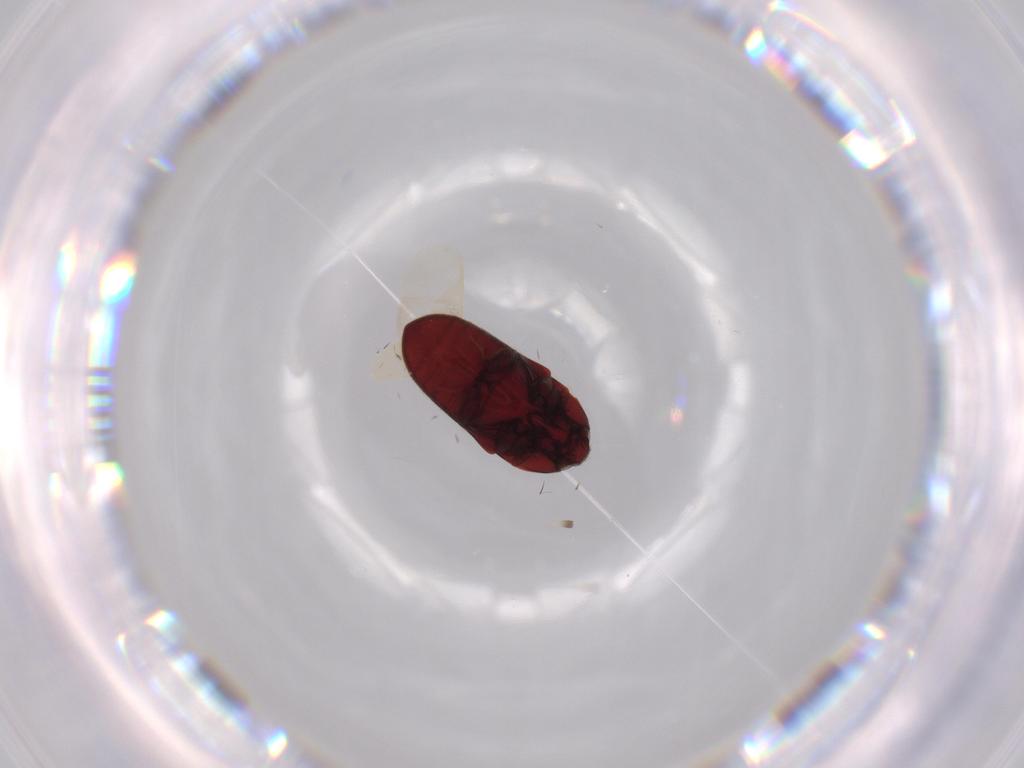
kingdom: Animalia
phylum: Arthropoda
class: Insecta
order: Coleoptera
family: Throscidae
